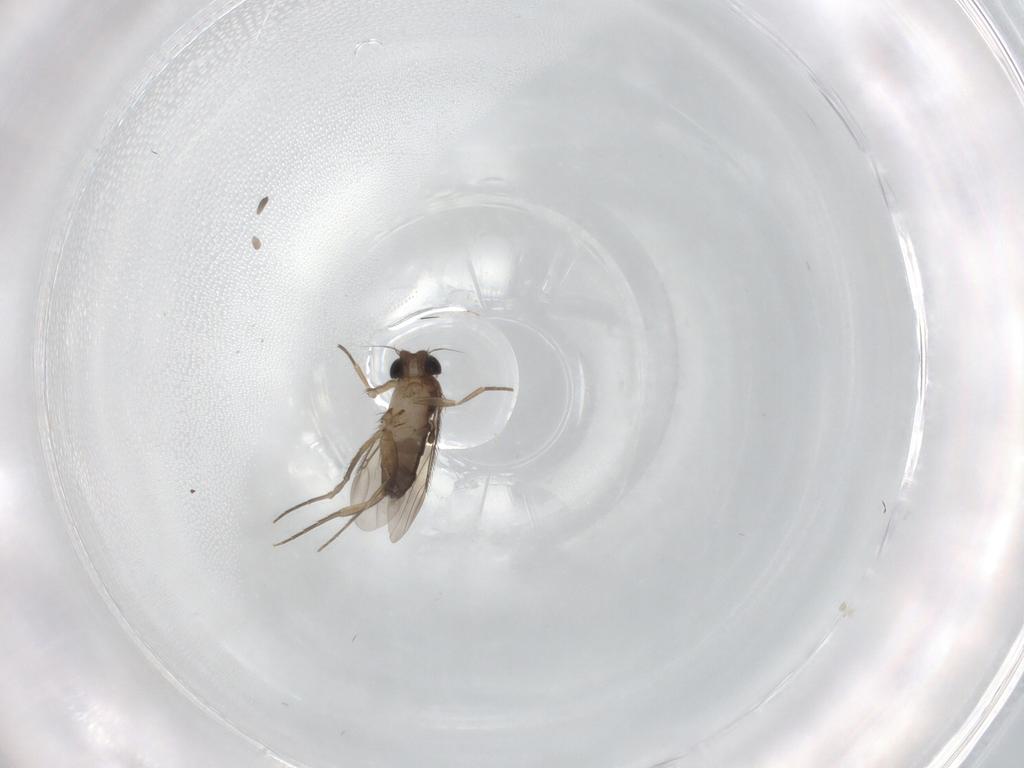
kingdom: Animalia
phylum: Arthropoda
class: Insecta
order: Diptera
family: Phoridae
